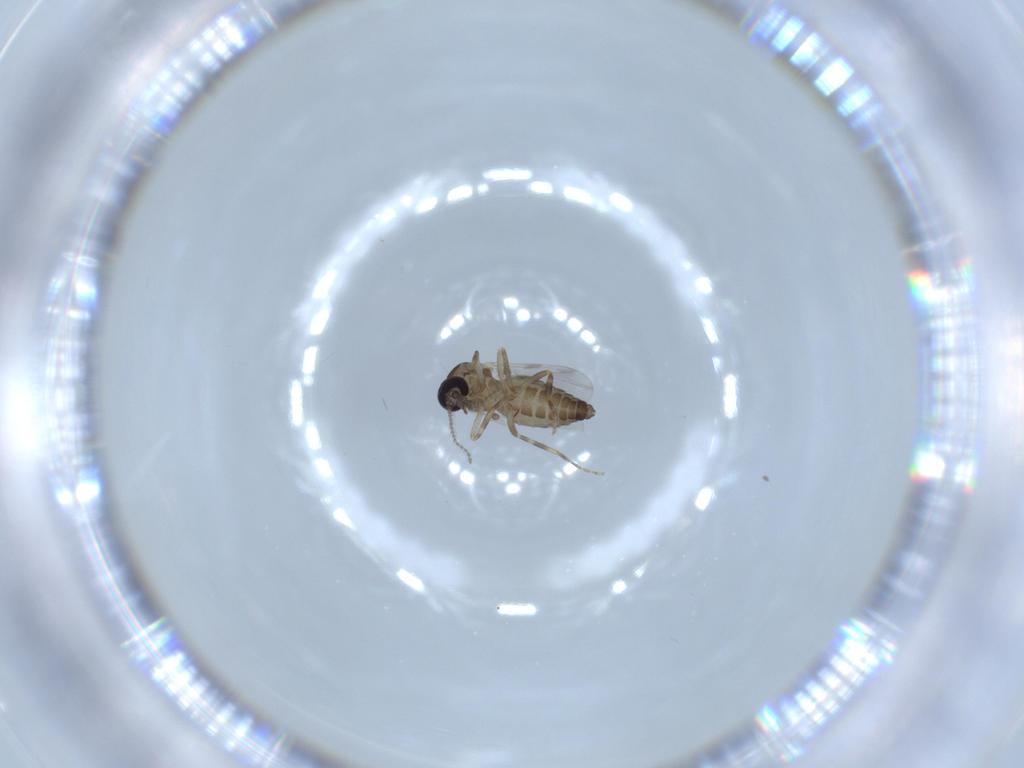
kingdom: Animalia
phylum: Arthropoda
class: Insecta
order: Diptera
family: Ceratopogonidae
